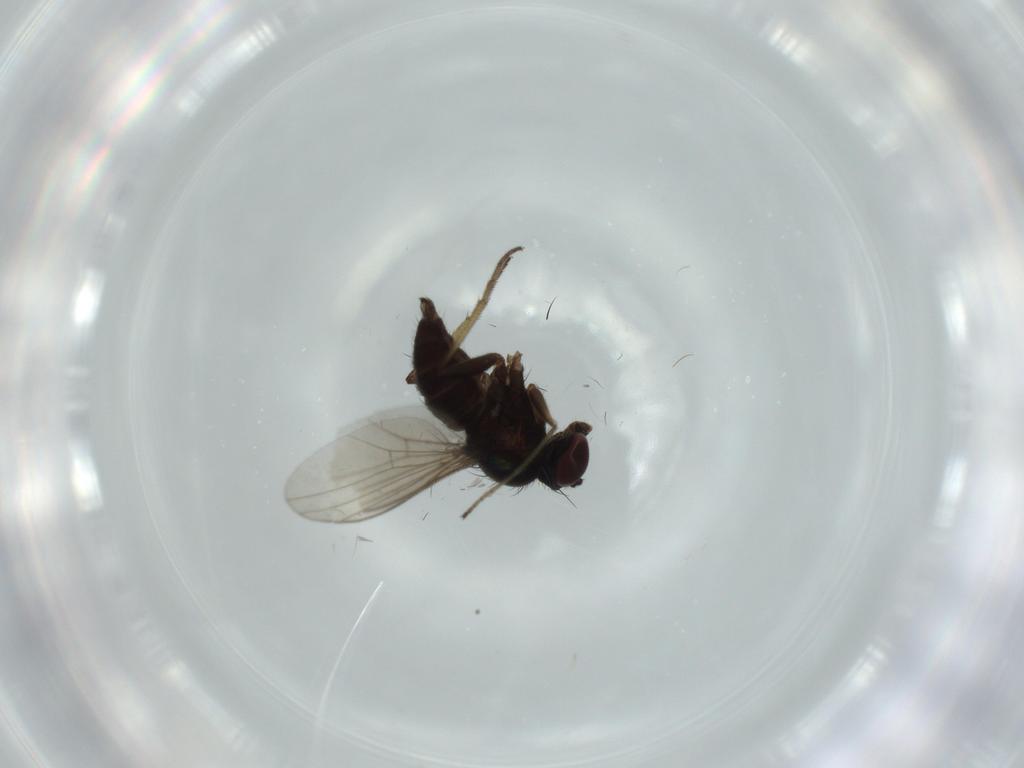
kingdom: Animalia
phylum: Arthropoda
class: Insecta
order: Diptera
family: Dolichopodidae
